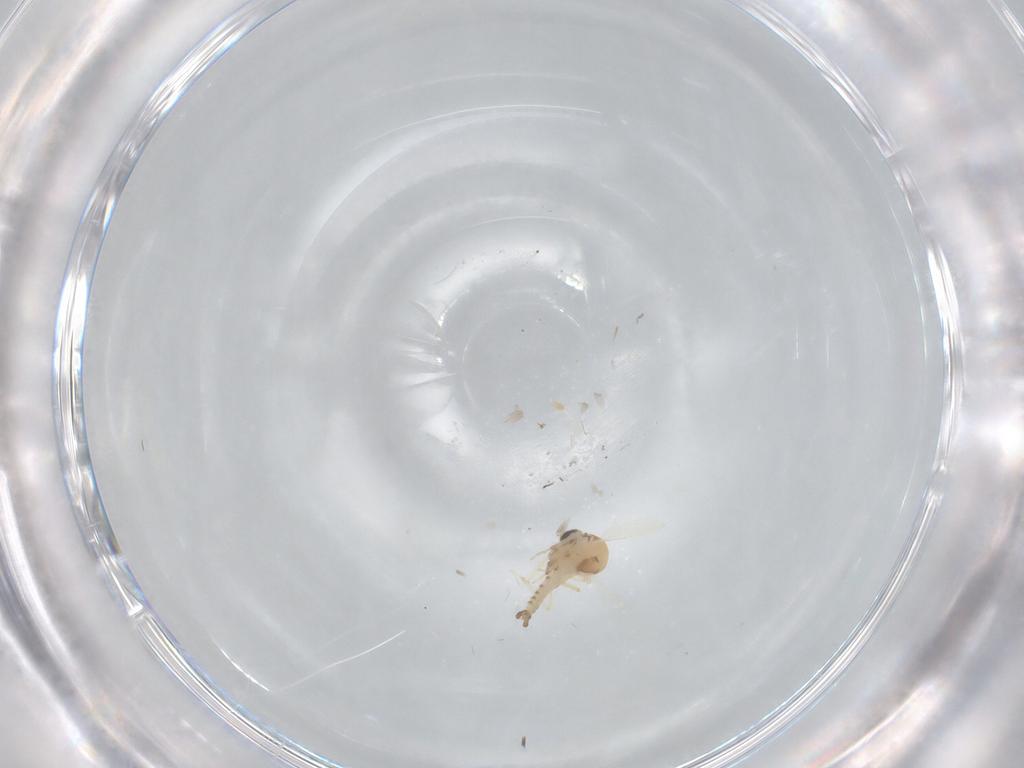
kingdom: Animalia
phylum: Arthropoda
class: Insecta
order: Diptera
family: Ceratopogonidae
